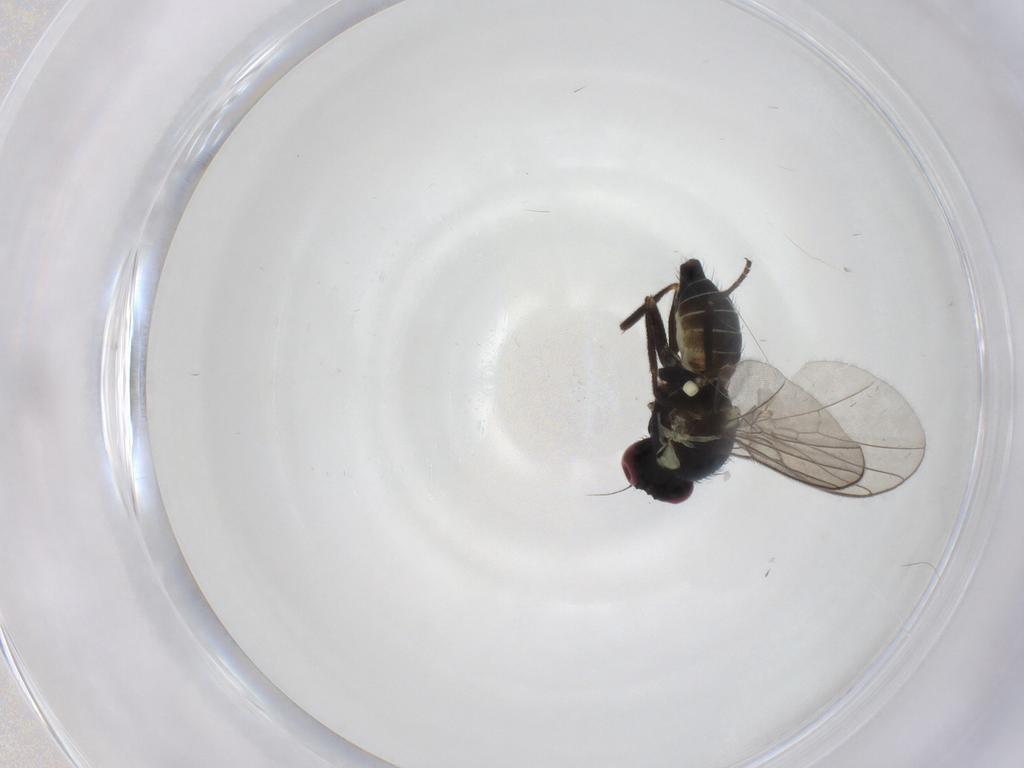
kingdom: Animalia
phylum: Arthropoda
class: Insecta
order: Diptera
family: Agromyzidae
